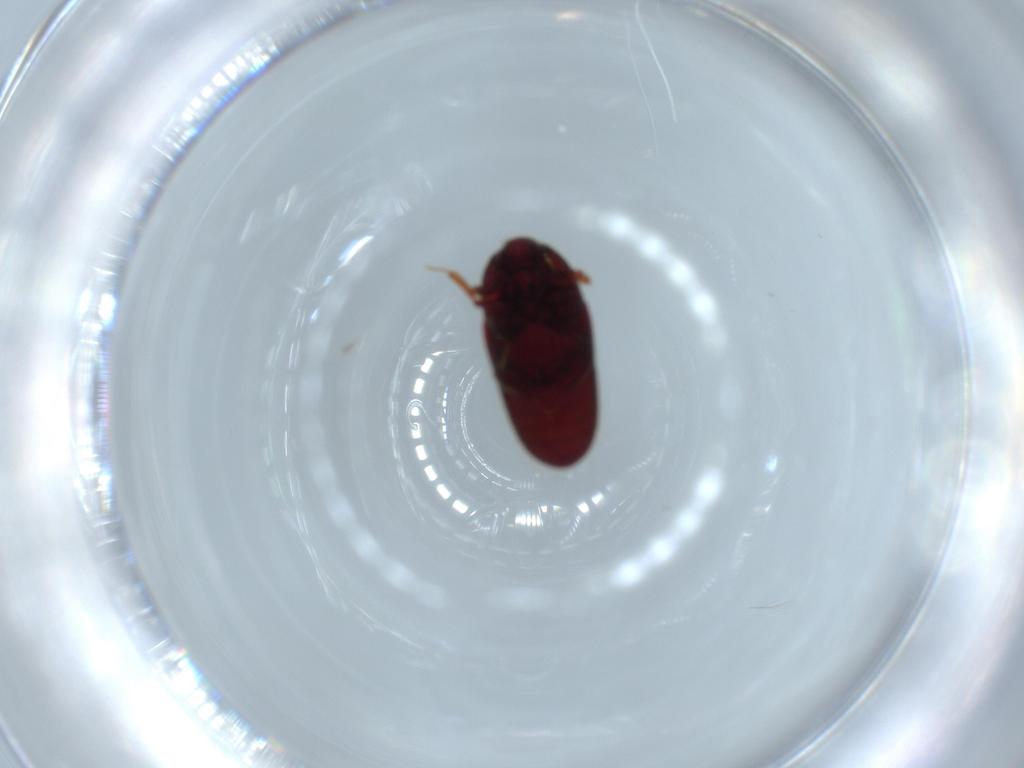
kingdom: Animalia
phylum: Arthropoda
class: Insecta
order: Coleoptera
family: Throscidae
